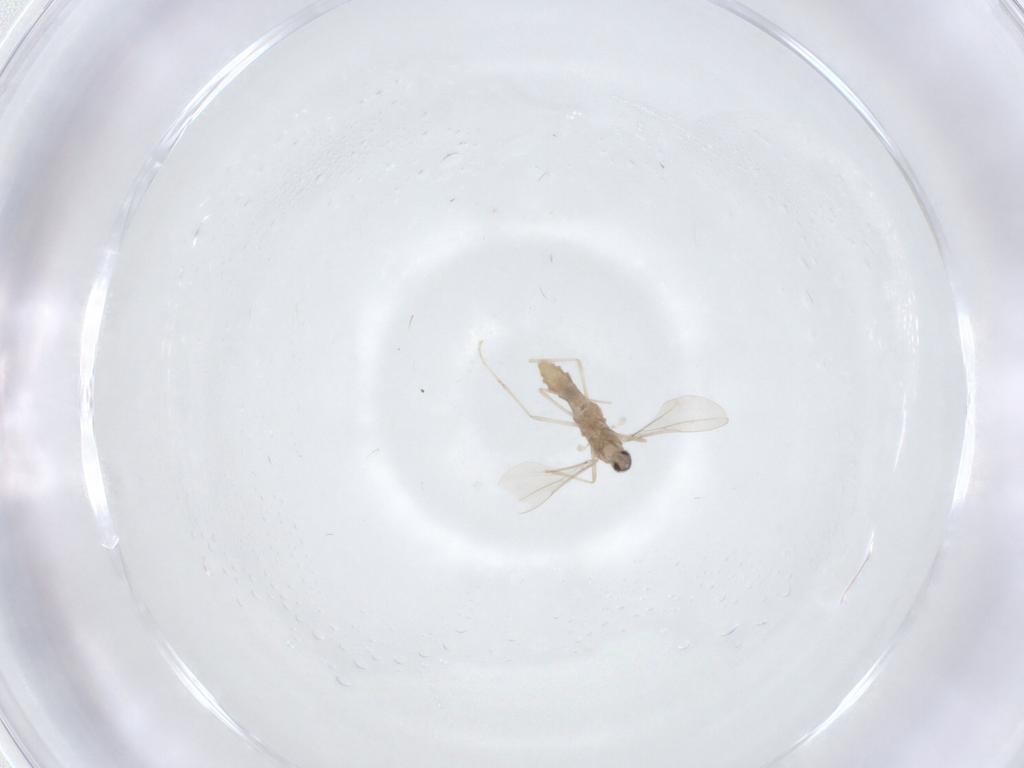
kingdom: Animalia
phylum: Arthropoda
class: Insecta
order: Diptera
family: Cecidomyiidae
